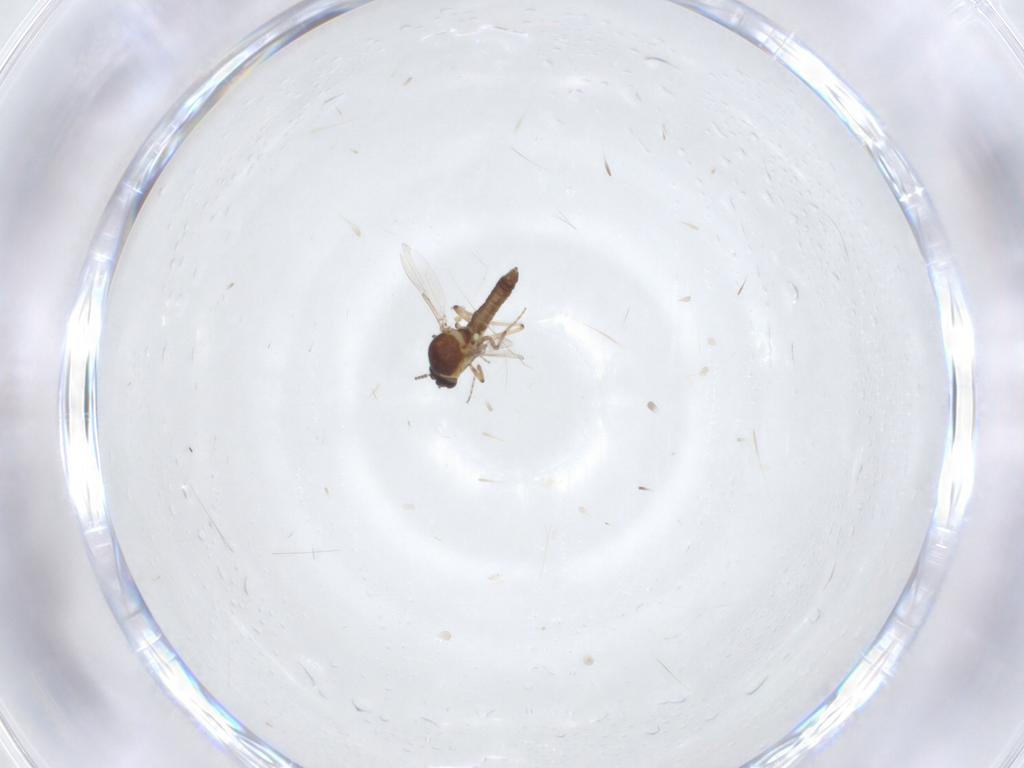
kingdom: Animalia
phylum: Arthropoda
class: Insecta
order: Diptera
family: Ceratopogonidae
